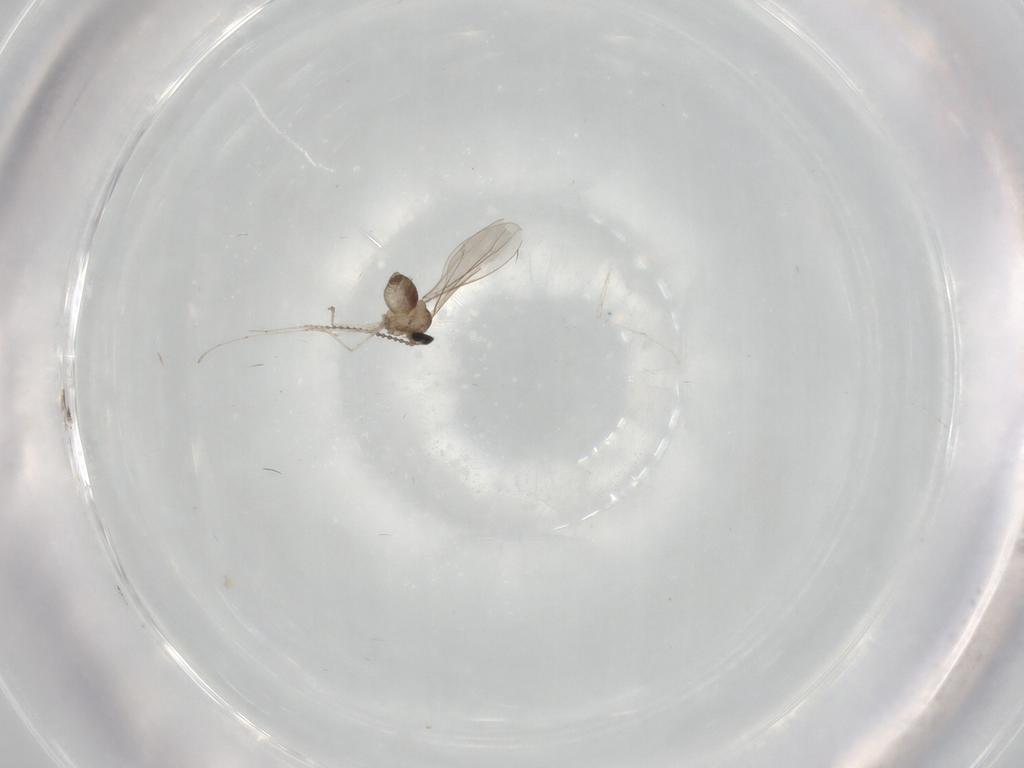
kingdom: Animalia
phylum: Arthropoda
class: Insecta
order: Diptera
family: Cecidomyiidae
